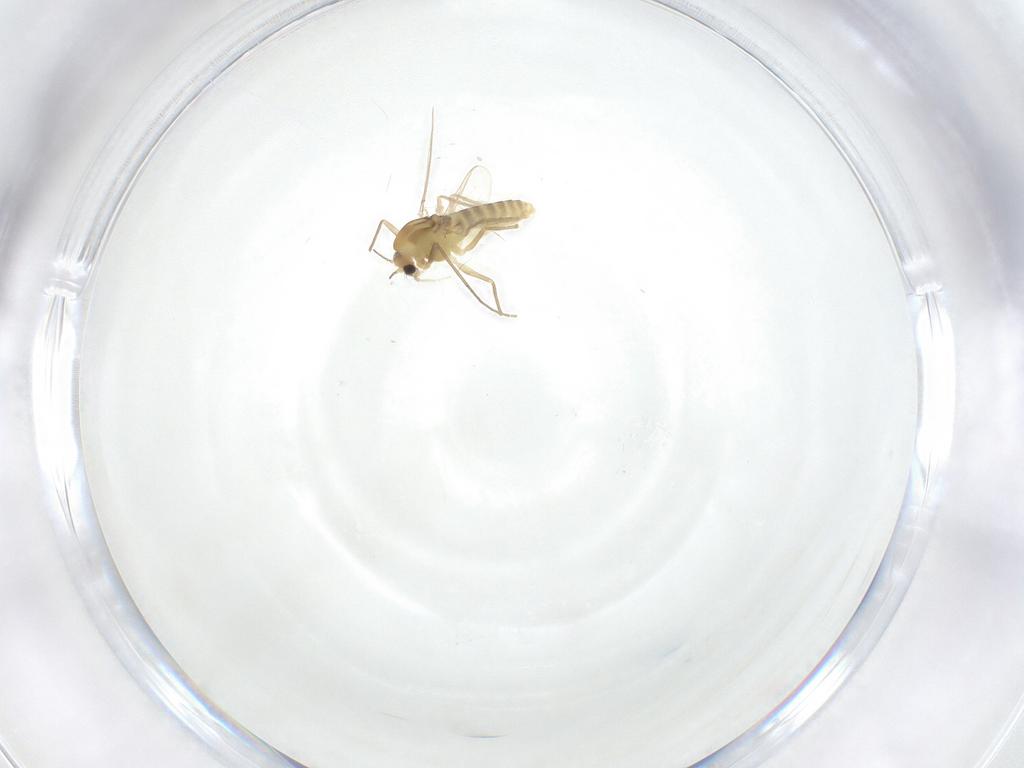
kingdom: Animalia
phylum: Arthropoda
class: Insecta
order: Diptera
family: Chironomidae
